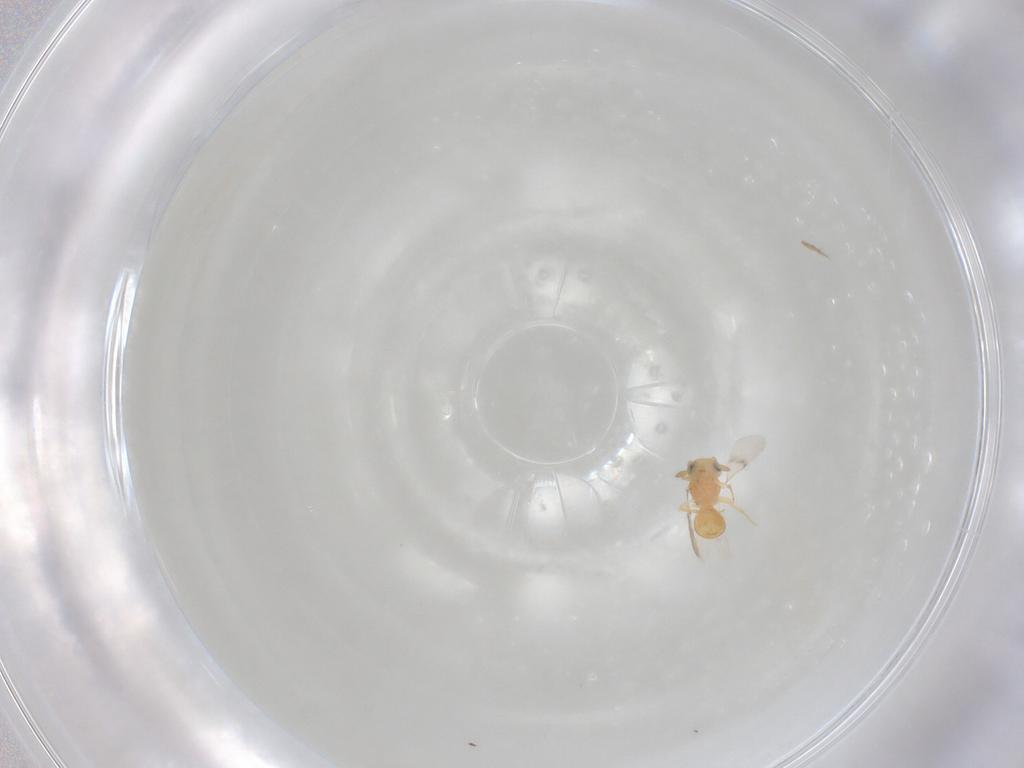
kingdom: Animalia
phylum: Arthropoda
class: Insecta
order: Hymenoptera
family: Scelionidae
